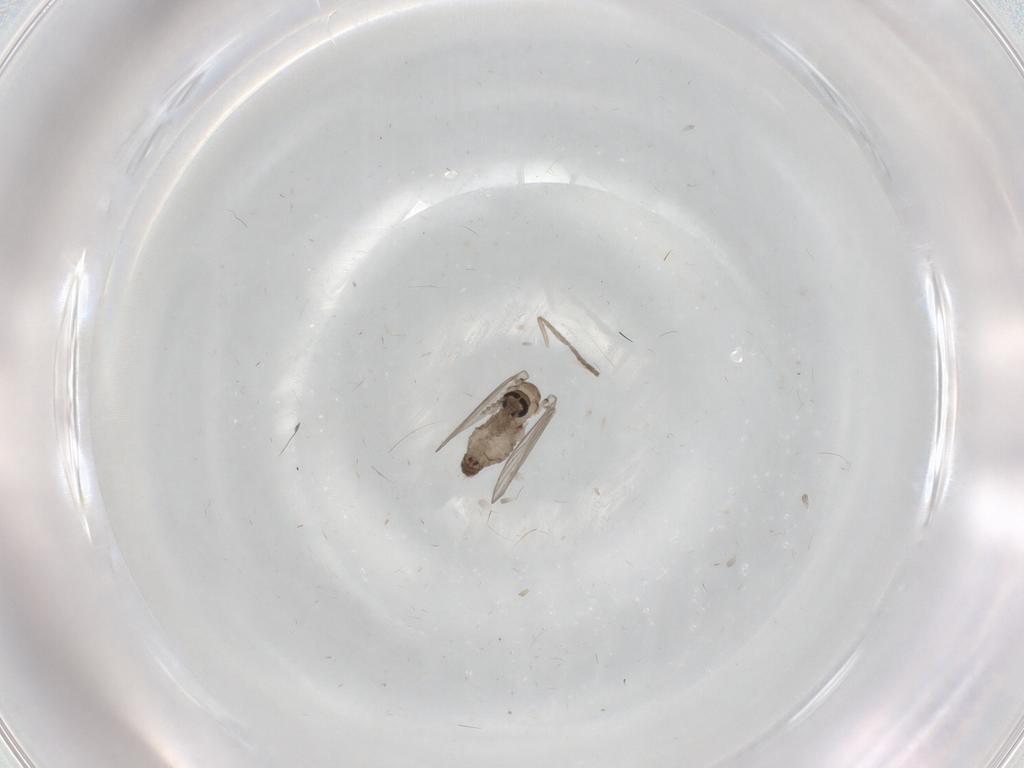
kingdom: Animalia
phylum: Arthropoda
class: Insecta
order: Diptera
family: Psychodidae
